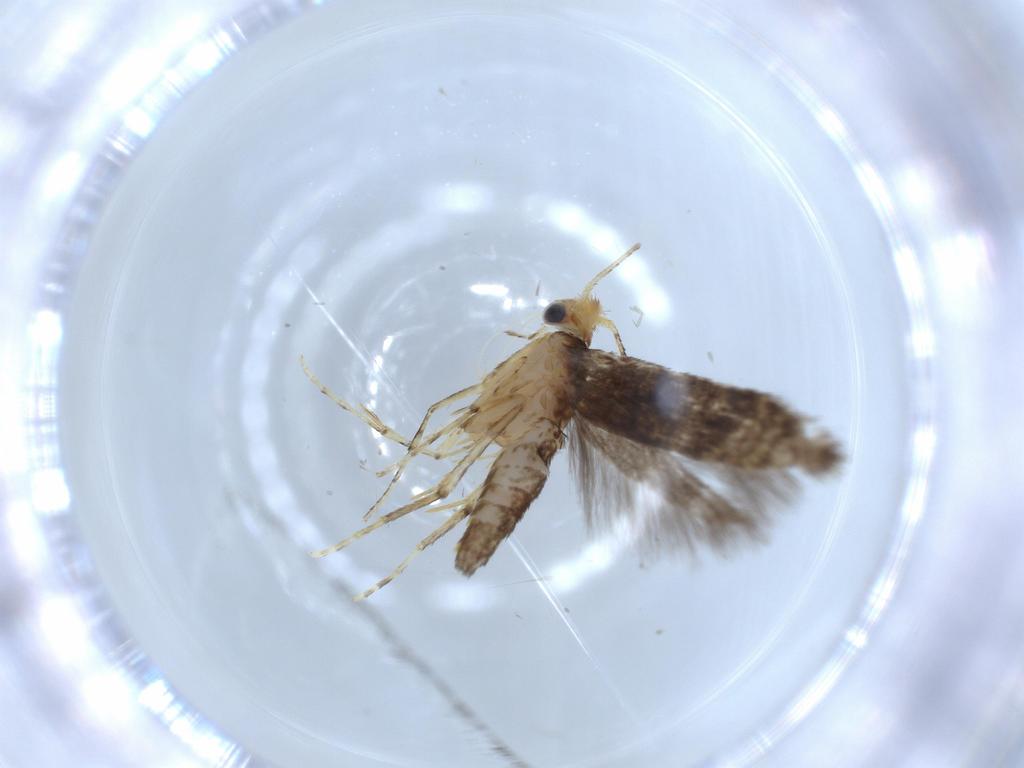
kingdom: Animalia
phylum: Arthropoda
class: Insecta
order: Lepidoptera
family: Argyresthiidae
